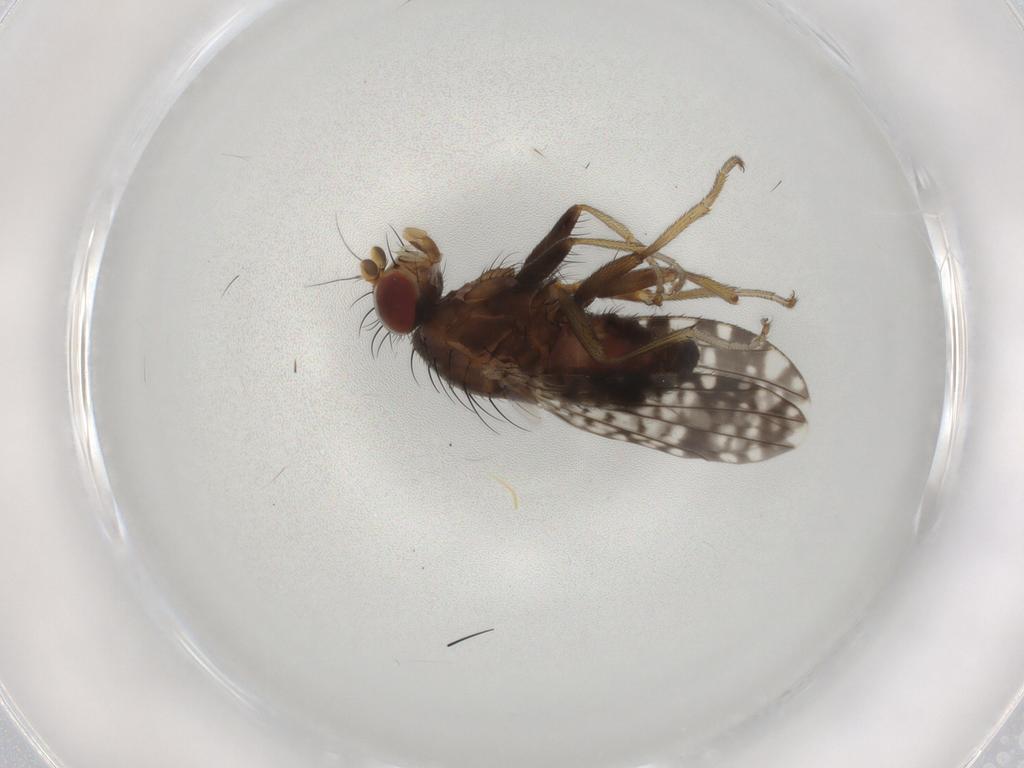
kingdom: Animalia
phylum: Arthropoda
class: Insecta
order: Diptera
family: Tephritidae
